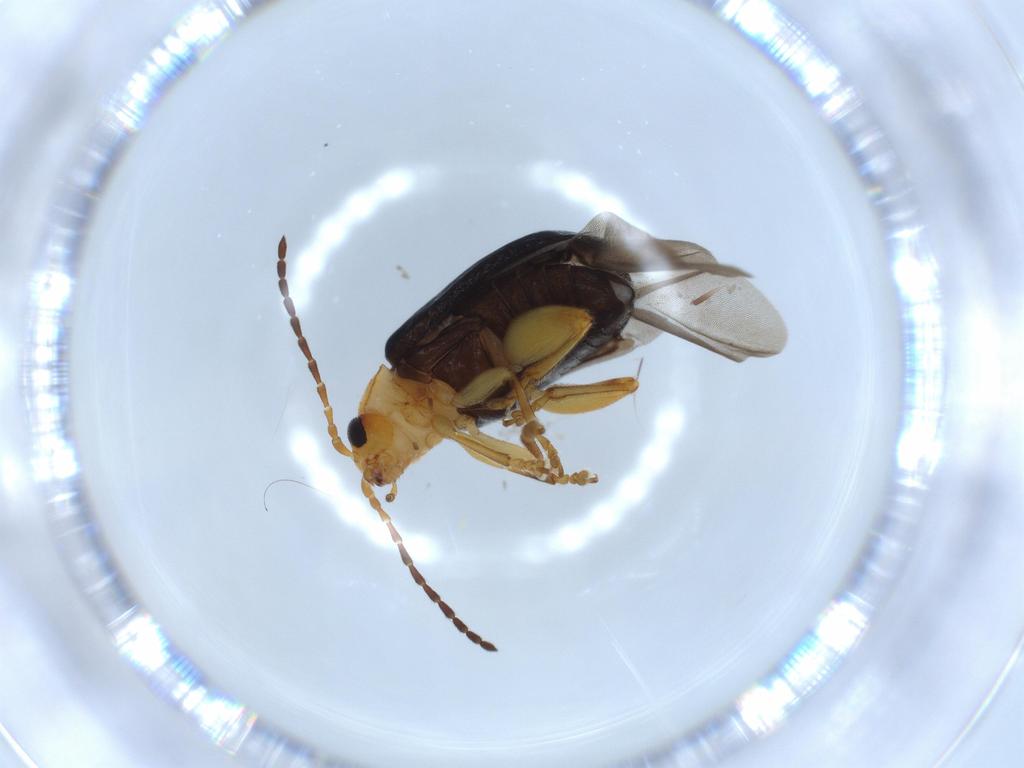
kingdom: Animalia
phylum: Arthropoda
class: Insecta
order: Coleoptera
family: Chrysomelidae
